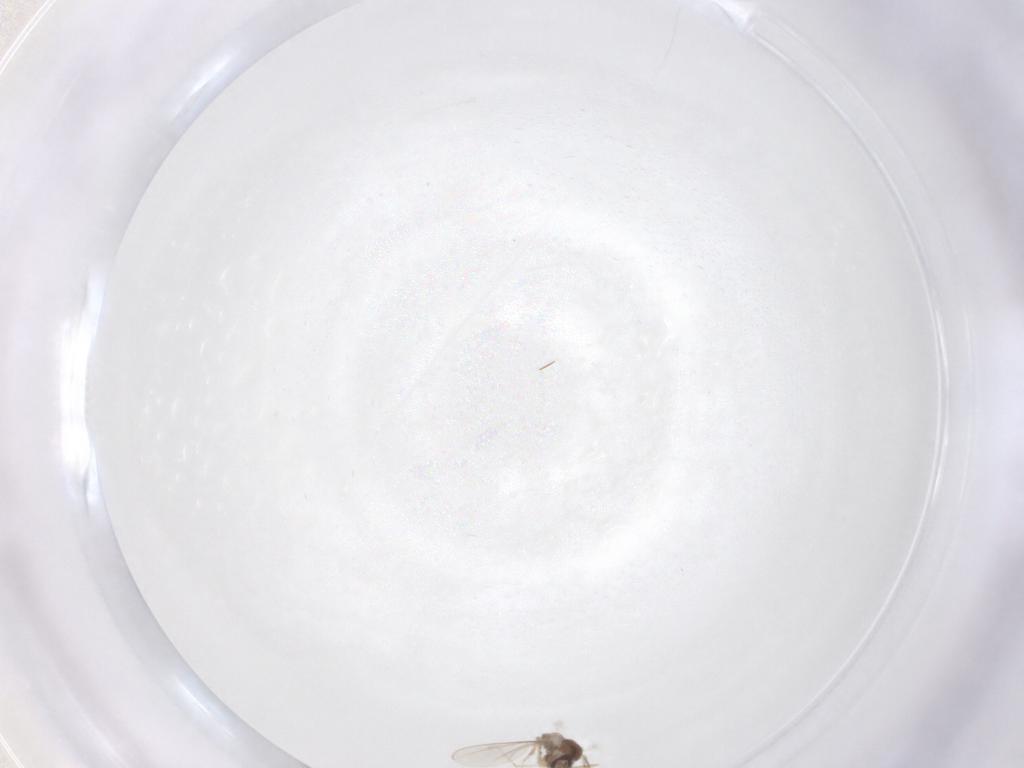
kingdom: Animalia
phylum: Arthropoda
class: Insecta
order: Diptera
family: Cecidomyiidae
